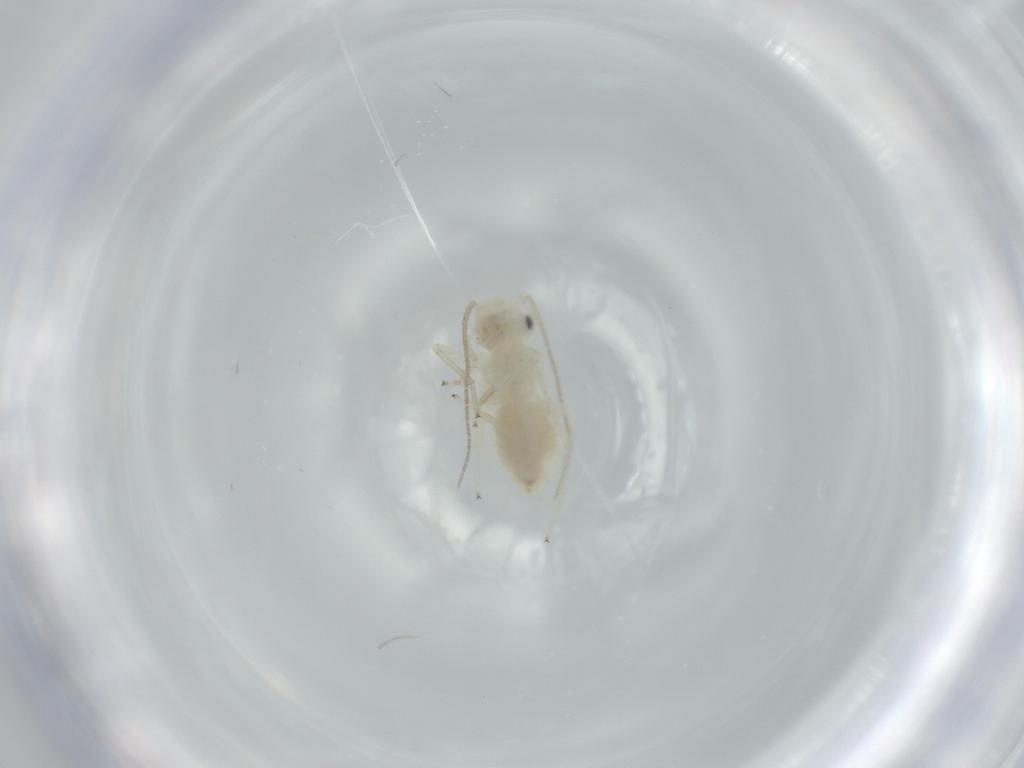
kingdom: Animalia
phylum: Arthropoda
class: Insecta
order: Psocodea
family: Caeciliusidae
